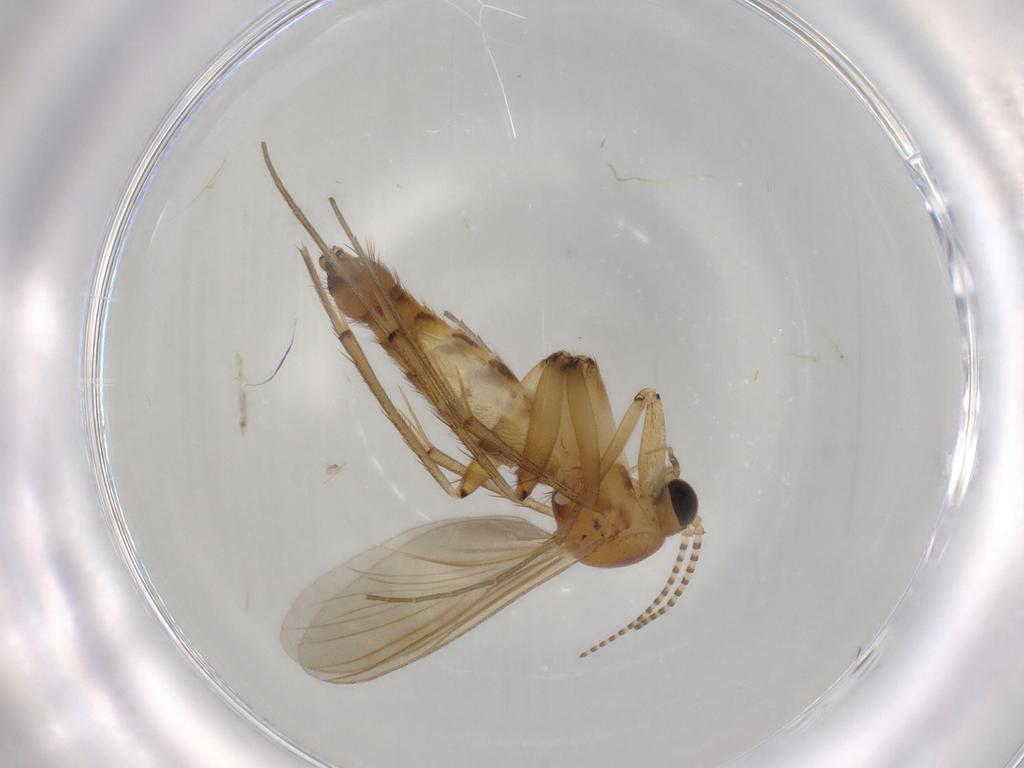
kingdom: Animalia
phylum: Arthropoda
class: Insecta
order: Diptera
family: Mycetophilidae
